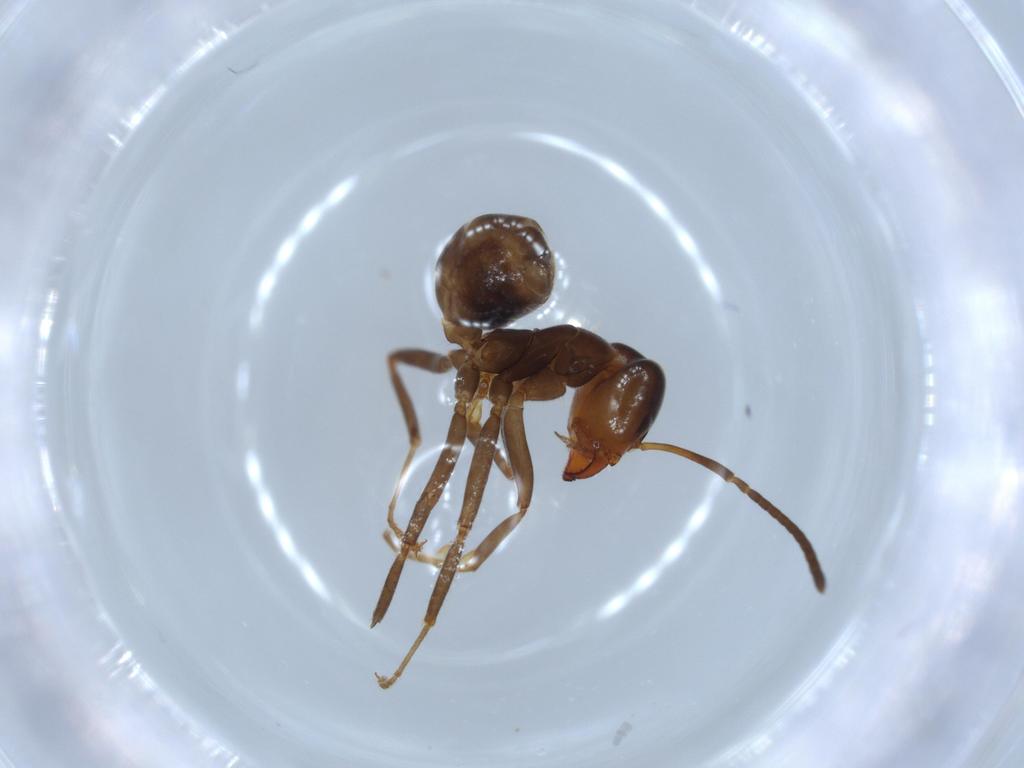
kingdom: Animalia
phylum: Arthropoda
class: Insecta
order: Hymenoptera
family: Formicidae
